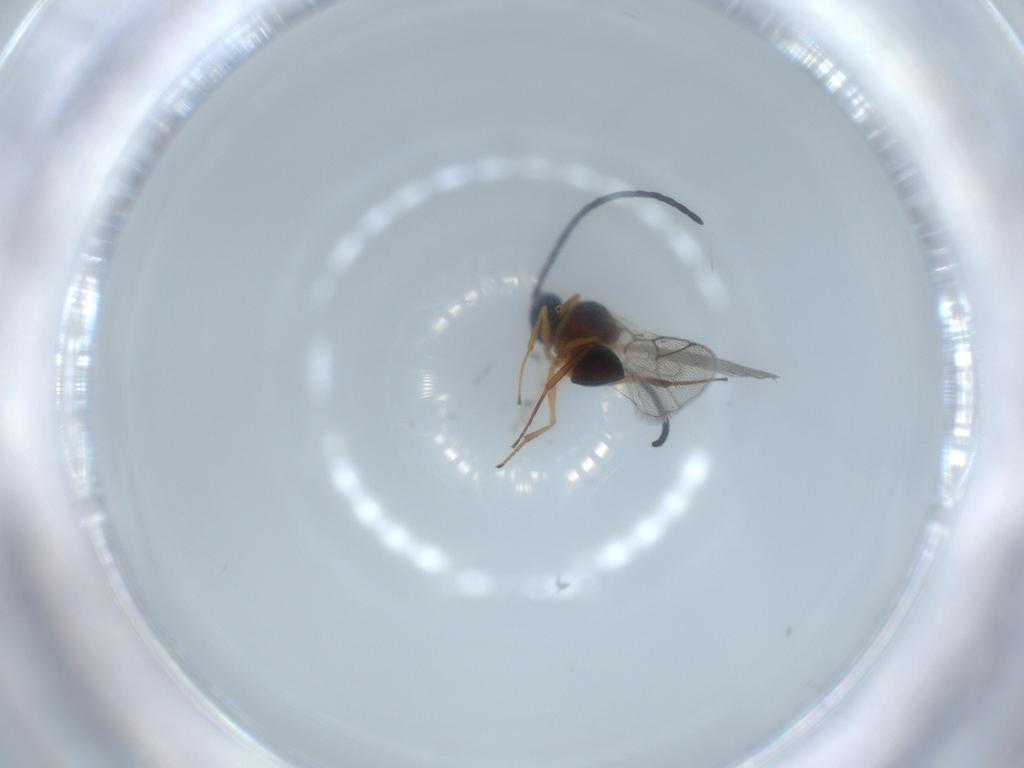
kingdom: Animalia
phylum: Arthropoda
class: Insecta
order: Hymenoptera
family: Figitidae
